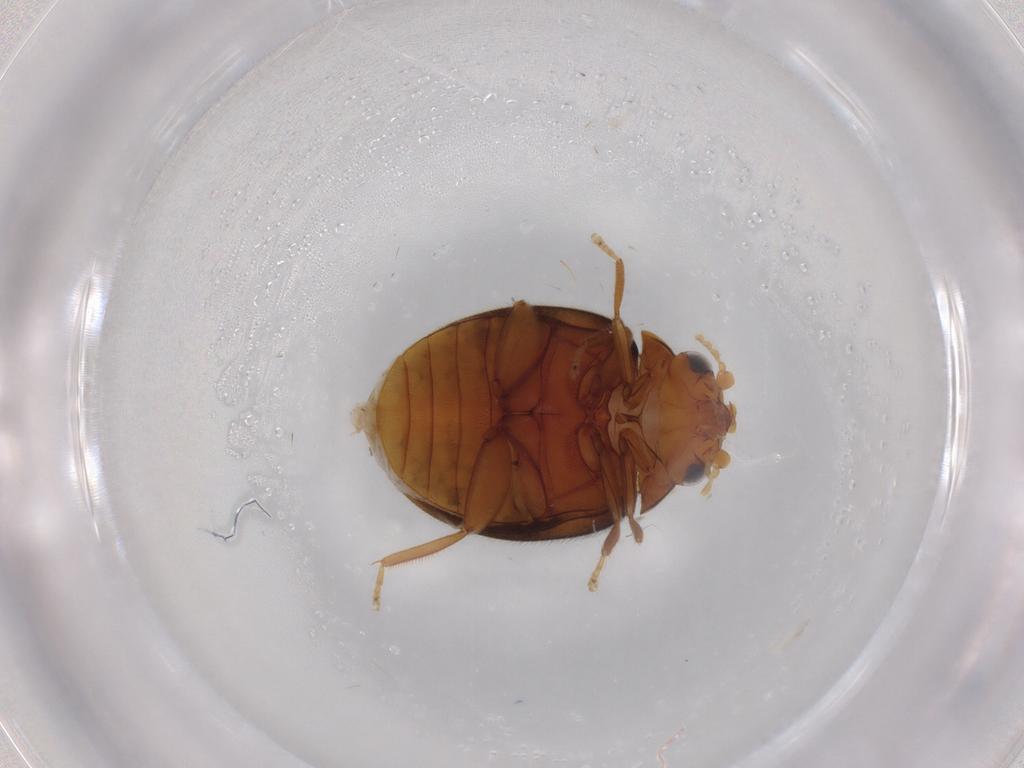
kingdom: Animalia
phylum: Arthropoda
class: Insecta
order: Coleoptera
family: Scirtidae
